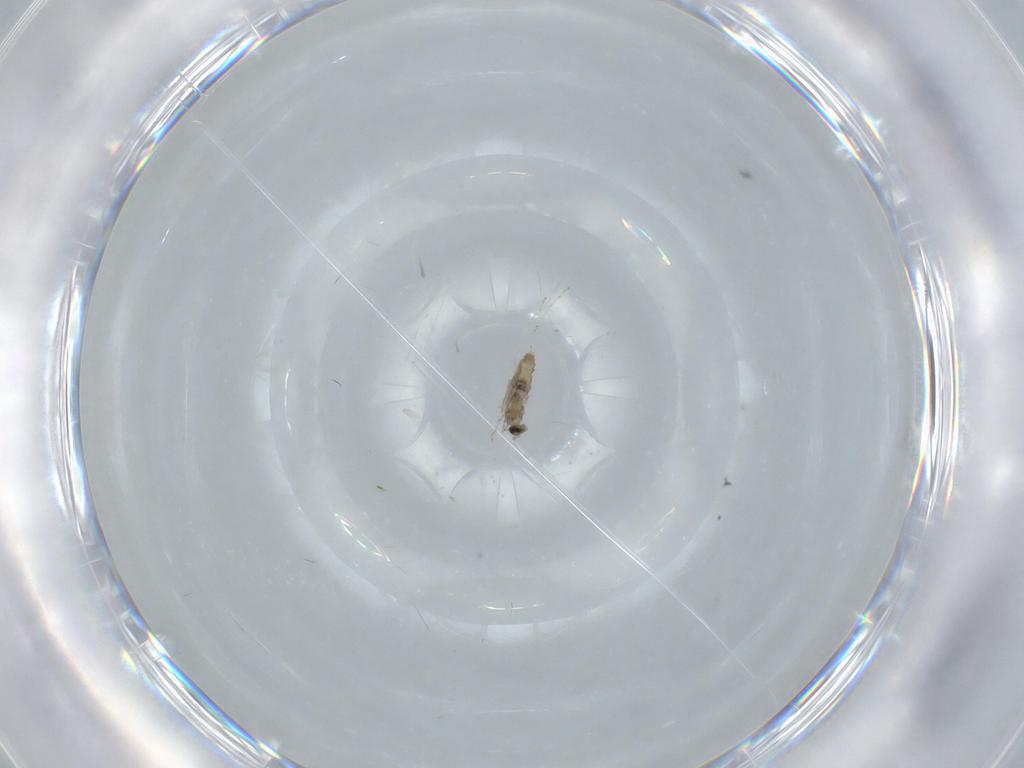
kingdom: Animalia
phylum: Arthropoda
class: Insecta
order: Diptera
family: Cecidomyiidae
